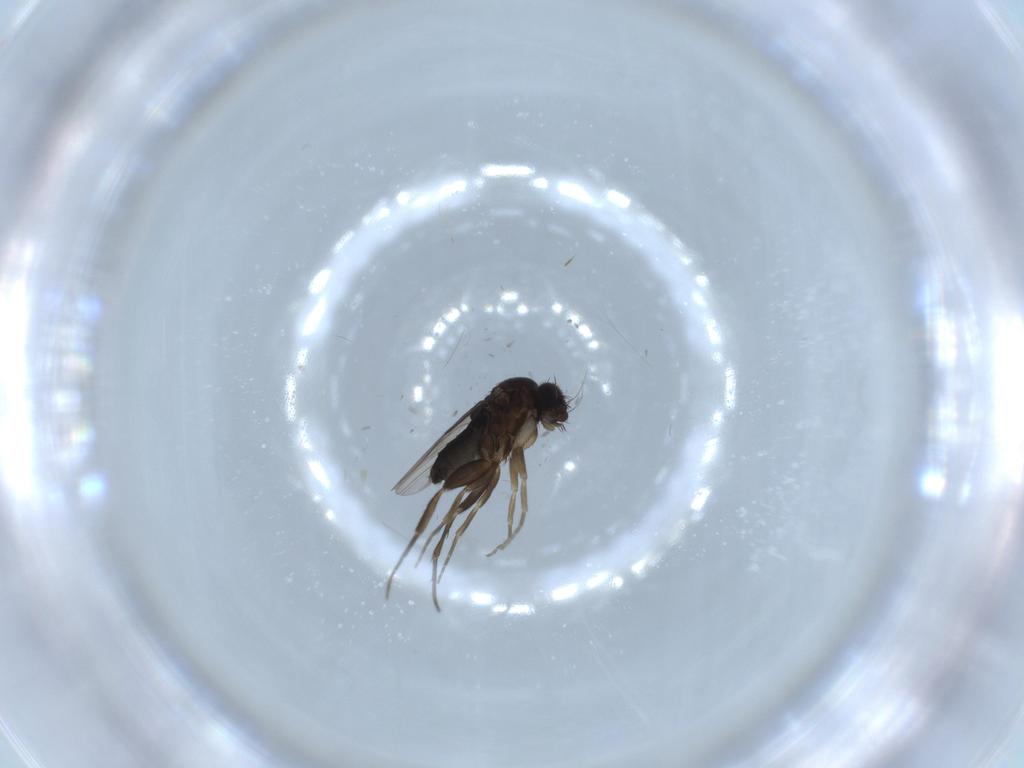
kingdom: Animalia
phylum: Arthropoda
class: Insecta
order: Diptera
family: Phoridae
